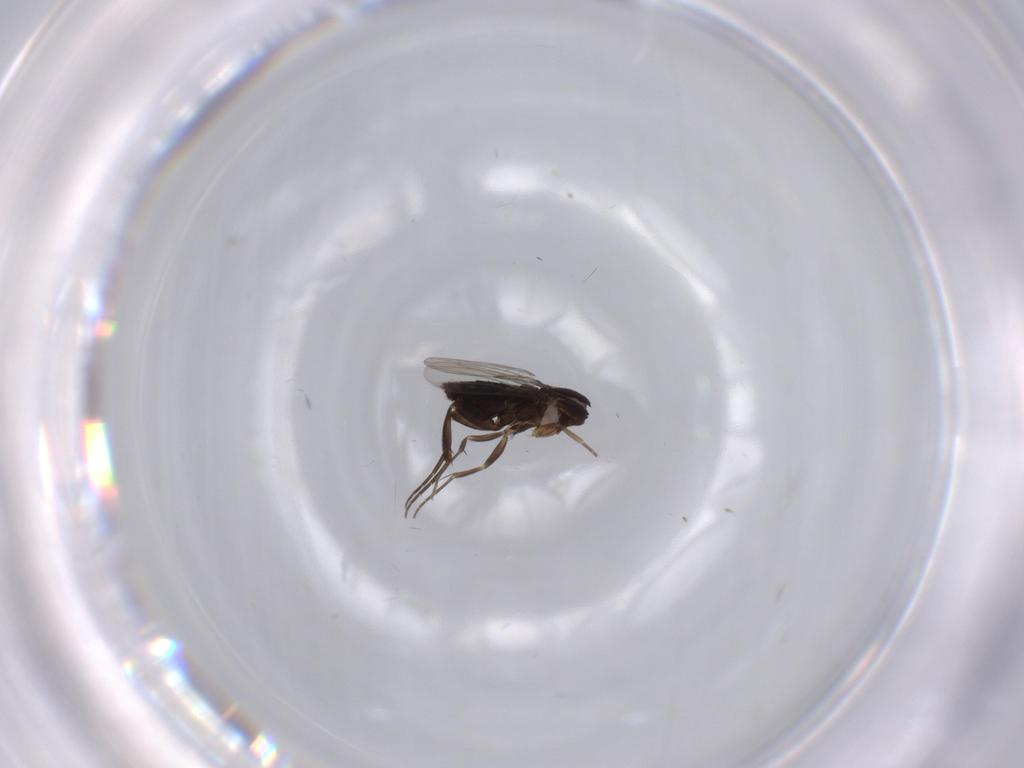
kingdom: Animalia
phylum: Arthropoda
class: Insecta
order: Diptera
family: Phoridae
